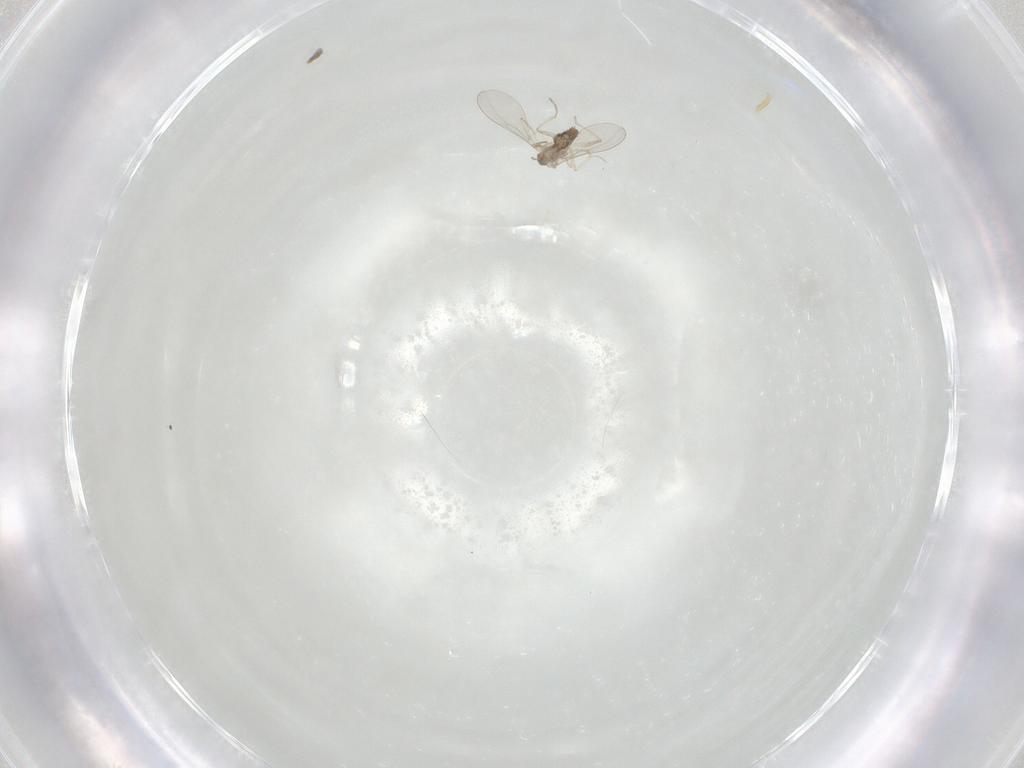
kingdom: Animalia
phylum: Arthropoda
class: Insecta
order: Diptera
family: Cecidomyiidae
